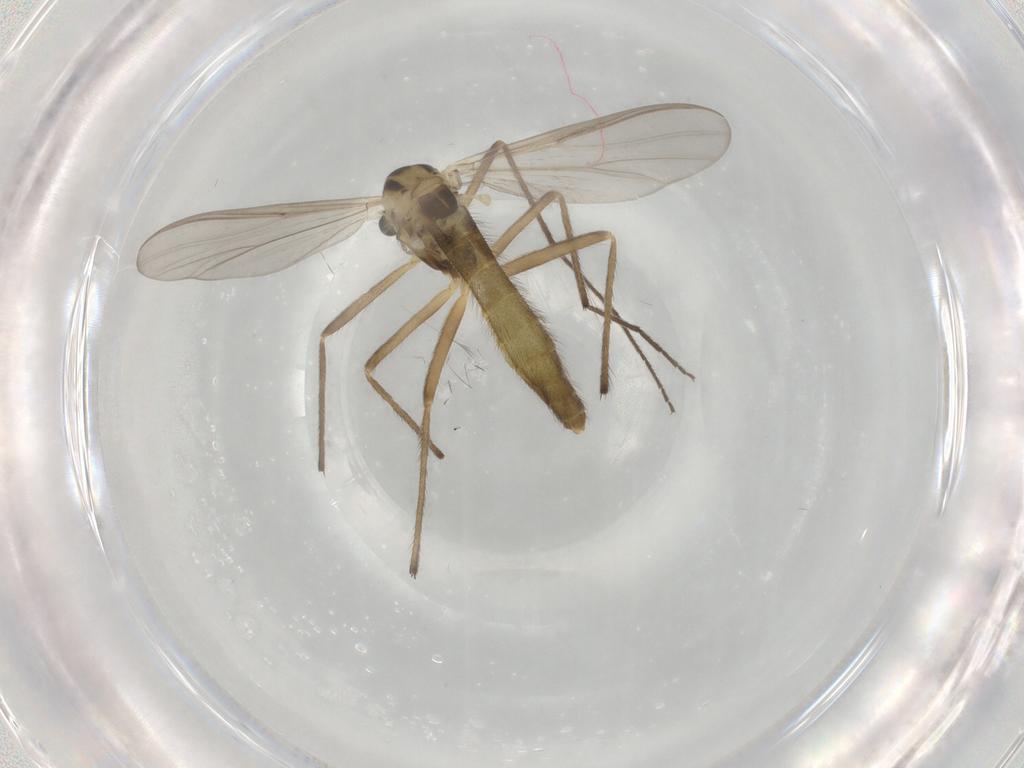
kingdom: Animalia
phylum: Arthropoda
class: Insecta
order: Diptera
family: Chironomidae
